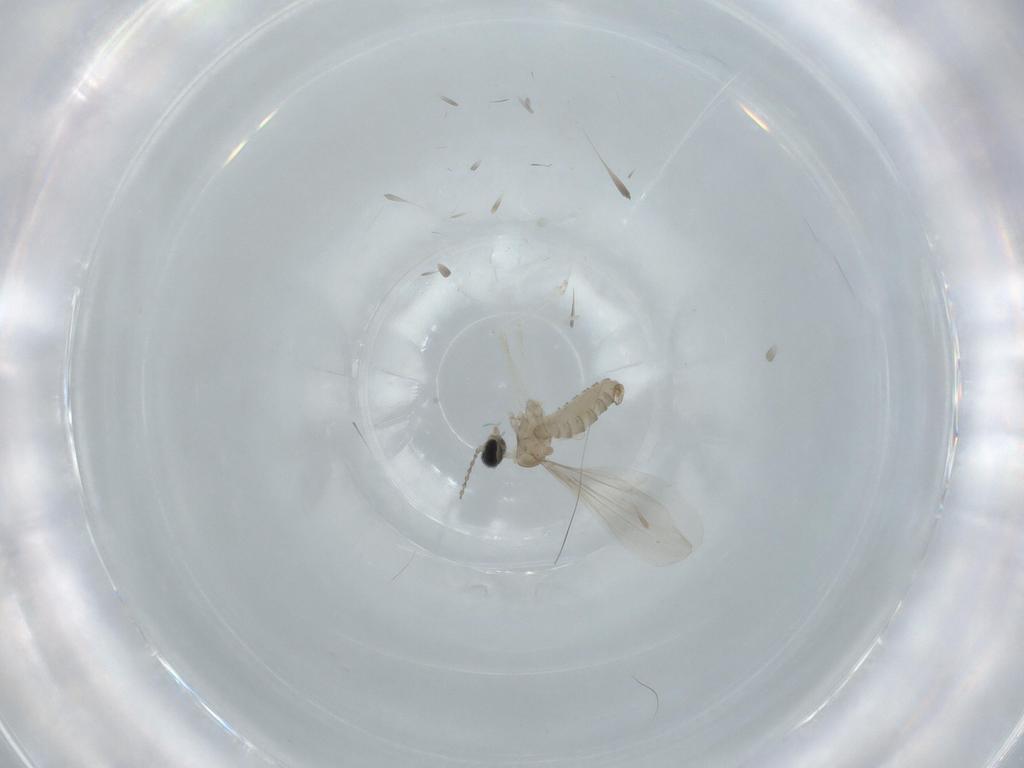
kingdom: Animalia
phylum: Arthropoda
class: Insecta
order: Diptera
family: Cecidomyiidae
